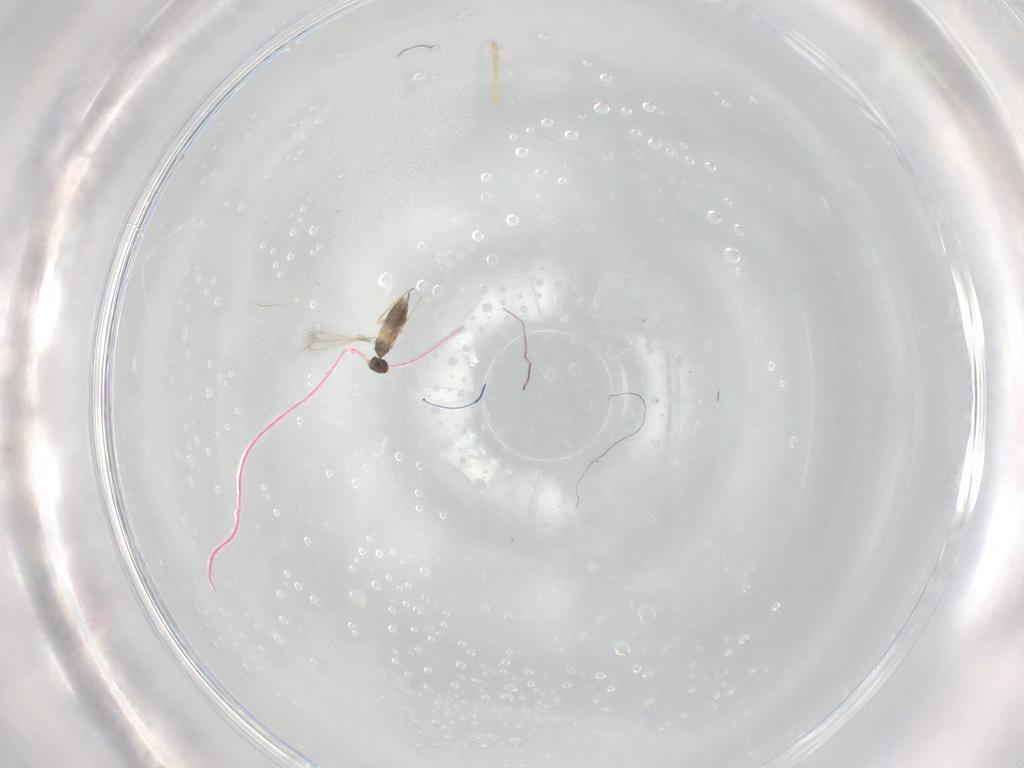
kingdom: Animalia
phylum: Arthropoda
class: Insecta
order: Hymenoptera
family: Mymaridae
